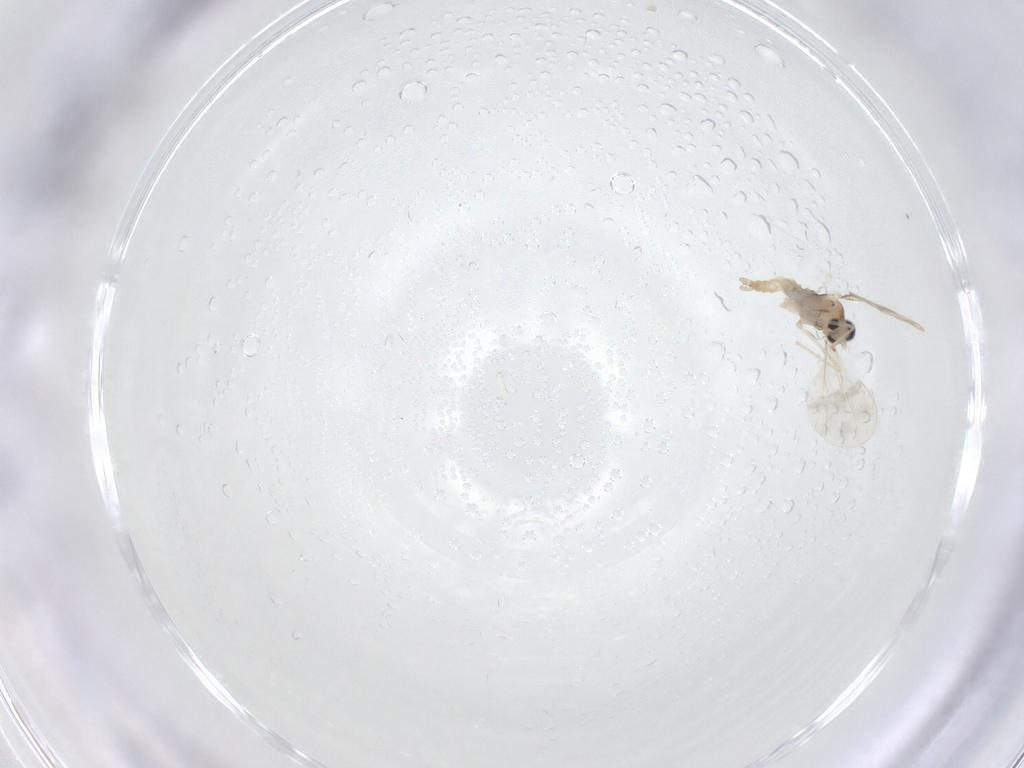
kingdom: Animalia
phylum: Arthropoda
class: Insecta
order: Diptera
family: Cecidomyiidae
